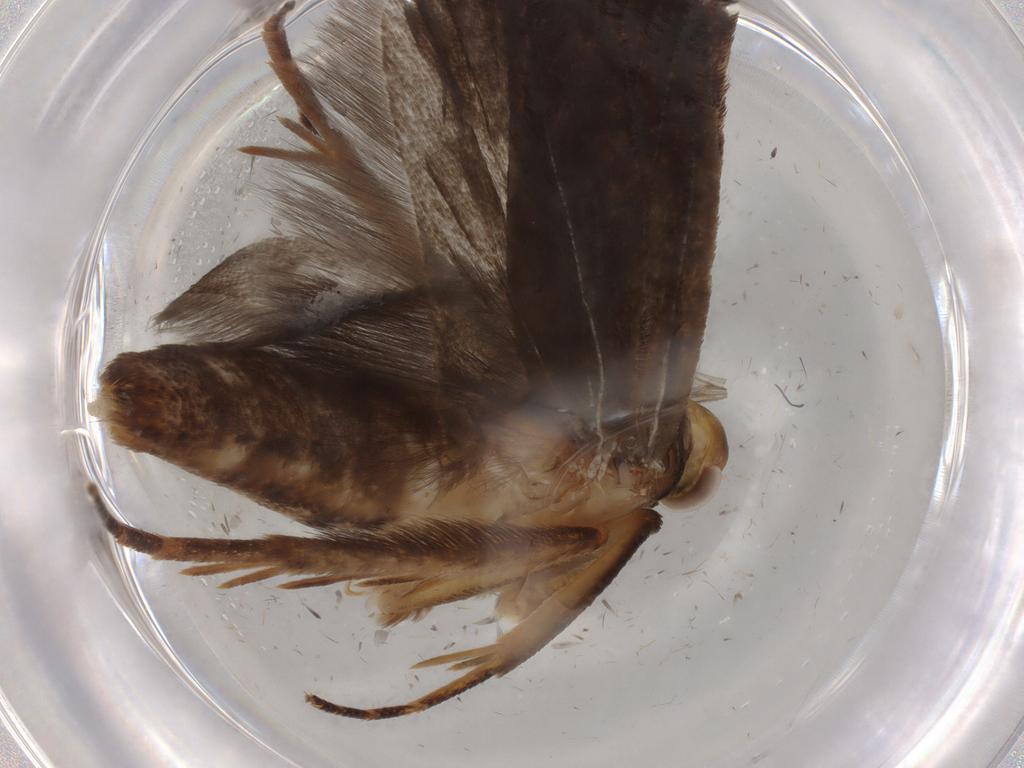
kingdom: Animalia
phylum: Arthropoda
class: Insecta
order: Lepidoptera
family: Gelechiidae
